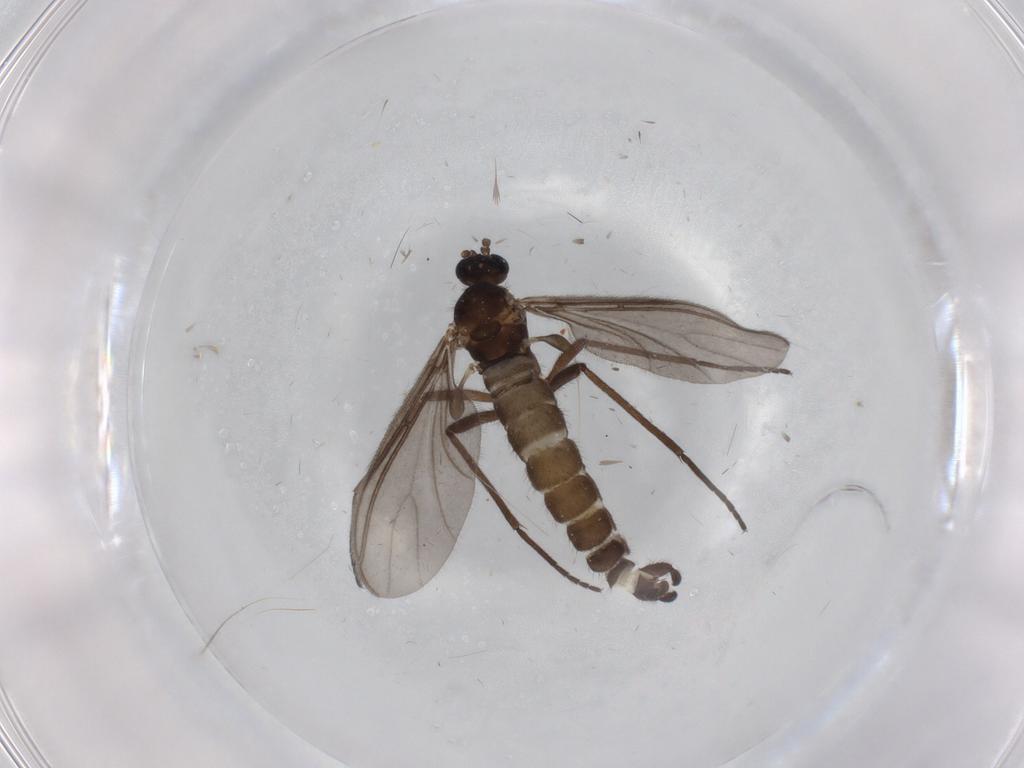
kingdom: Animalia
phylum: Arthropoda
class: Insecta
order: Diptera
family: Sciaridae
